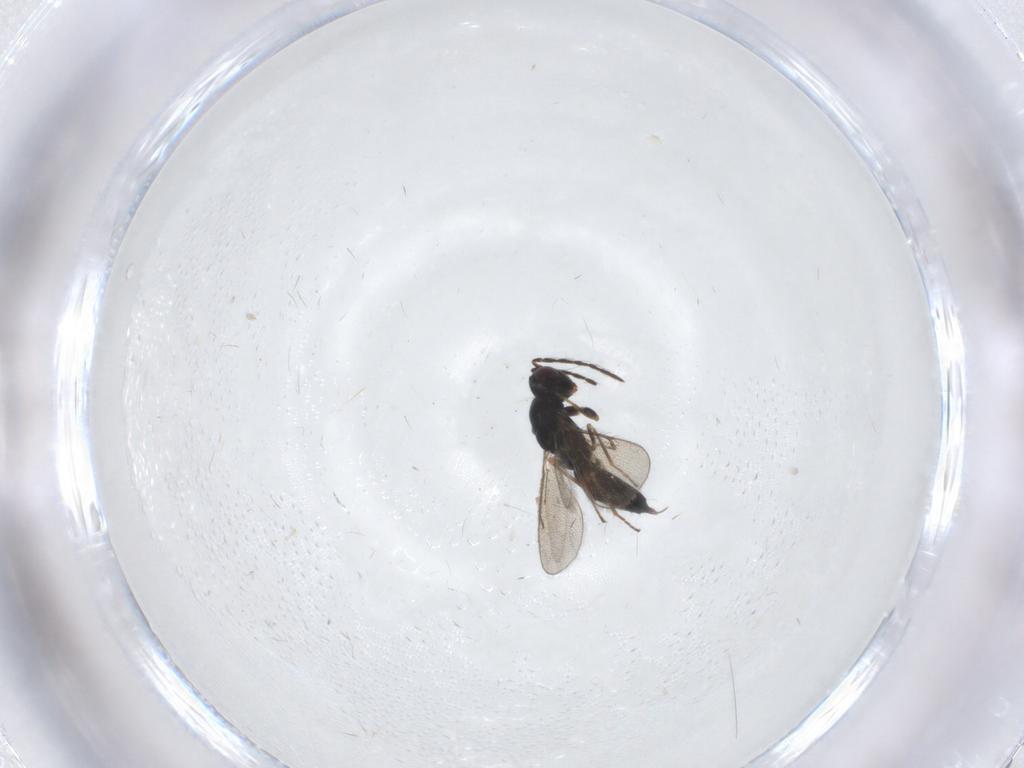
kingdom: Animalia
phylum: Arthropoda
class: Insecta
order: Hymenoptera
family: Eulophidae
